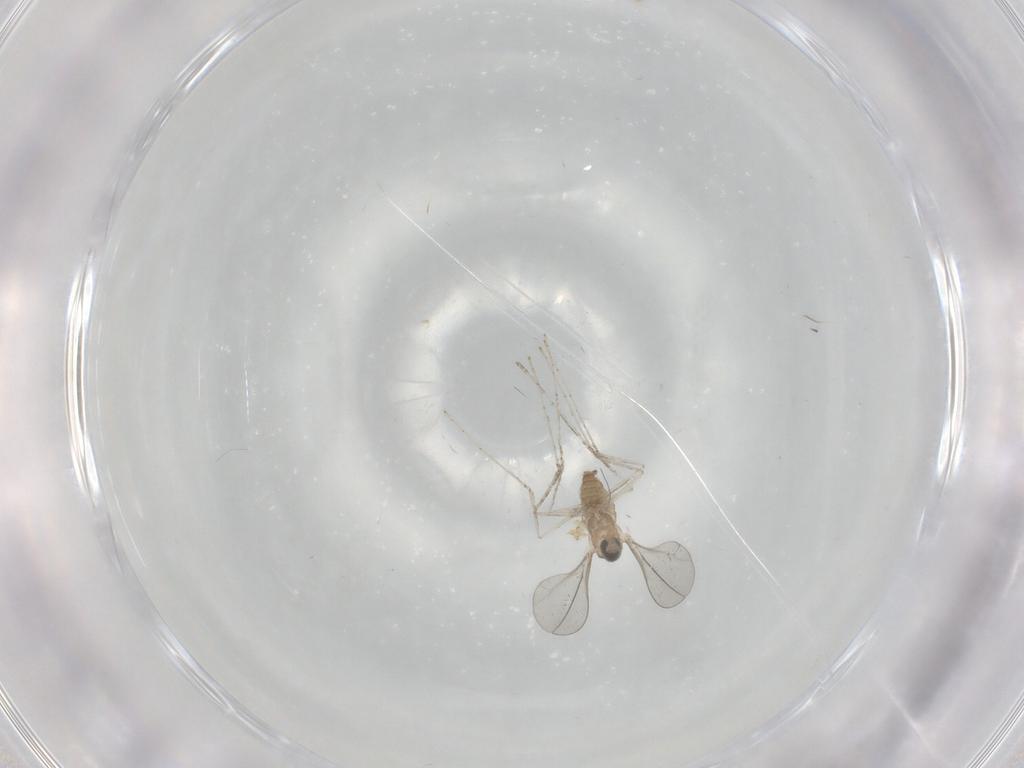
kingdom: Animalia
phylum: Arthropoda
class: Insecta
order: Diptera
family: Cecidomyiidae
